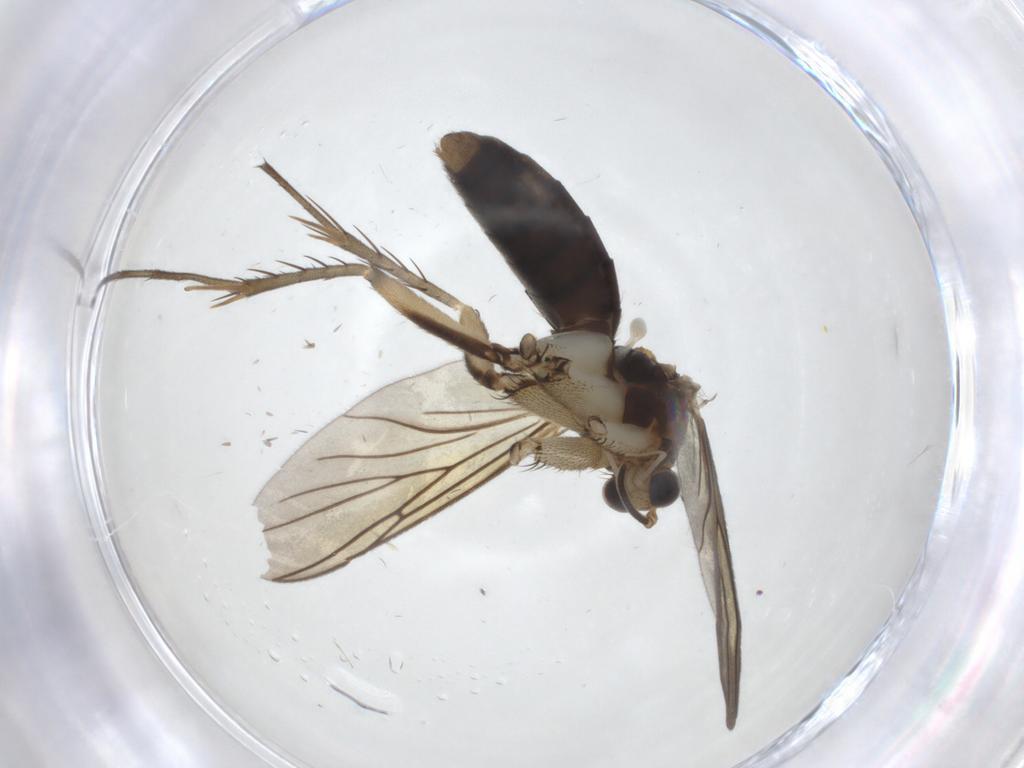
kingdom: Animalia
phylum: Arthropoda
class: Insecta
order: Diptera
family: Mycetophilidae
